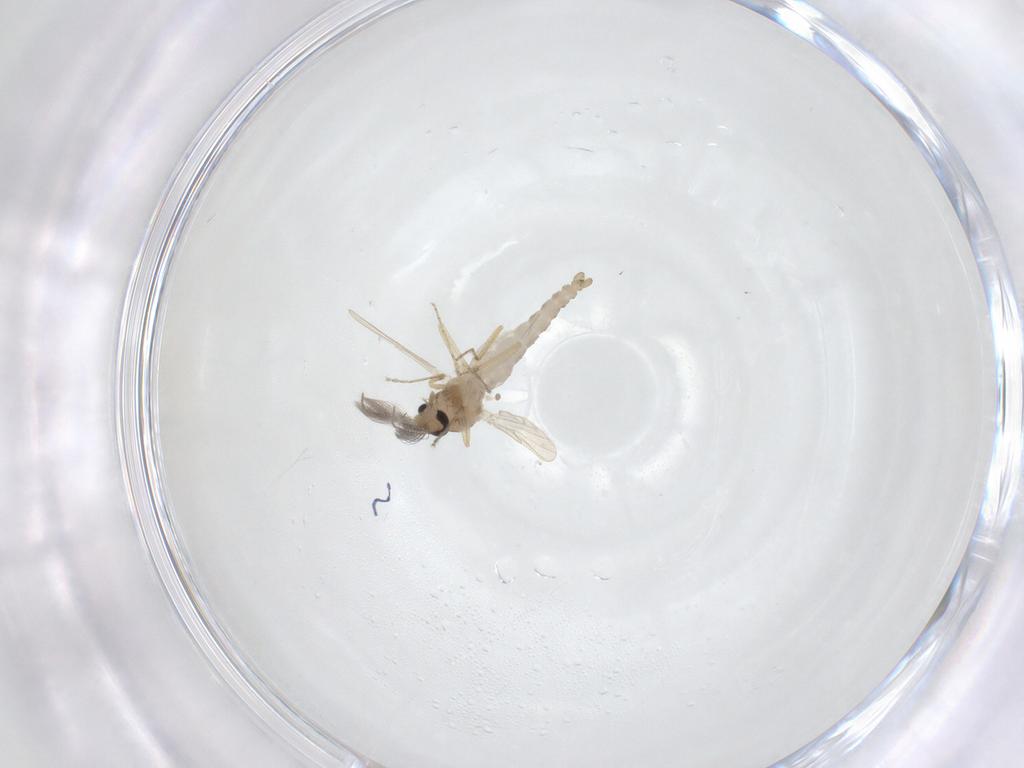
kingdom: Animalia
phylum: Arthropoda
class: Insecta
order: Diptera
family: Ceratopogonidae
